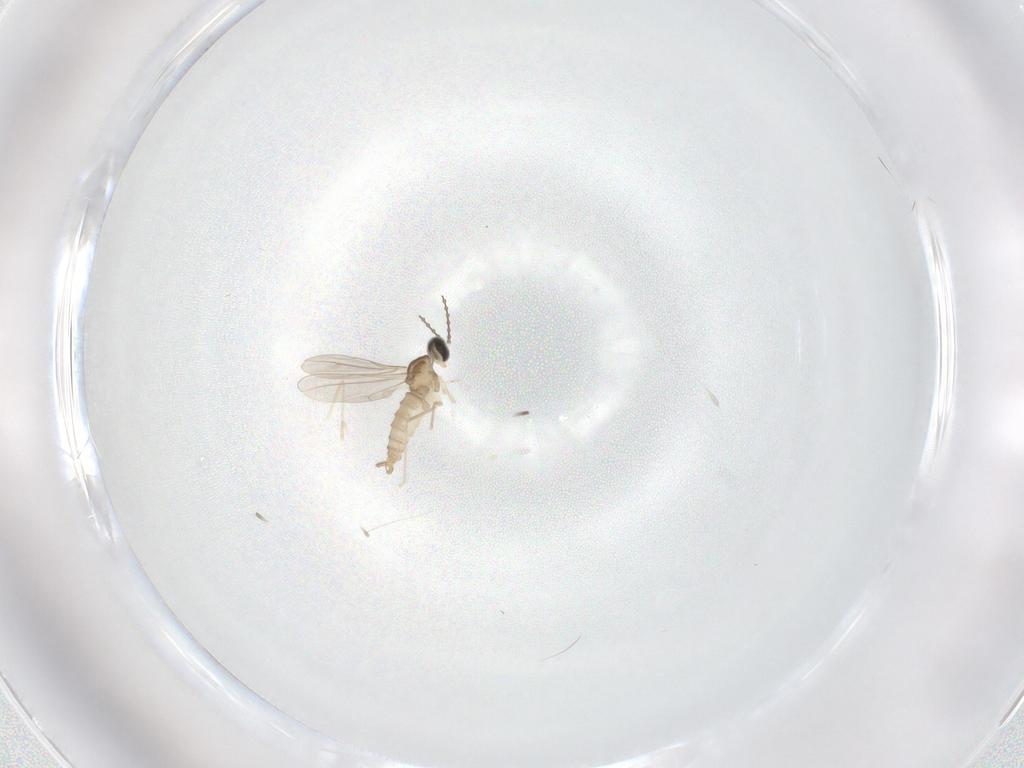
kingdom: Animalia
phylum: Arthropoda
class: Insecta
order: Diptera
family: Cecidomyiidae
